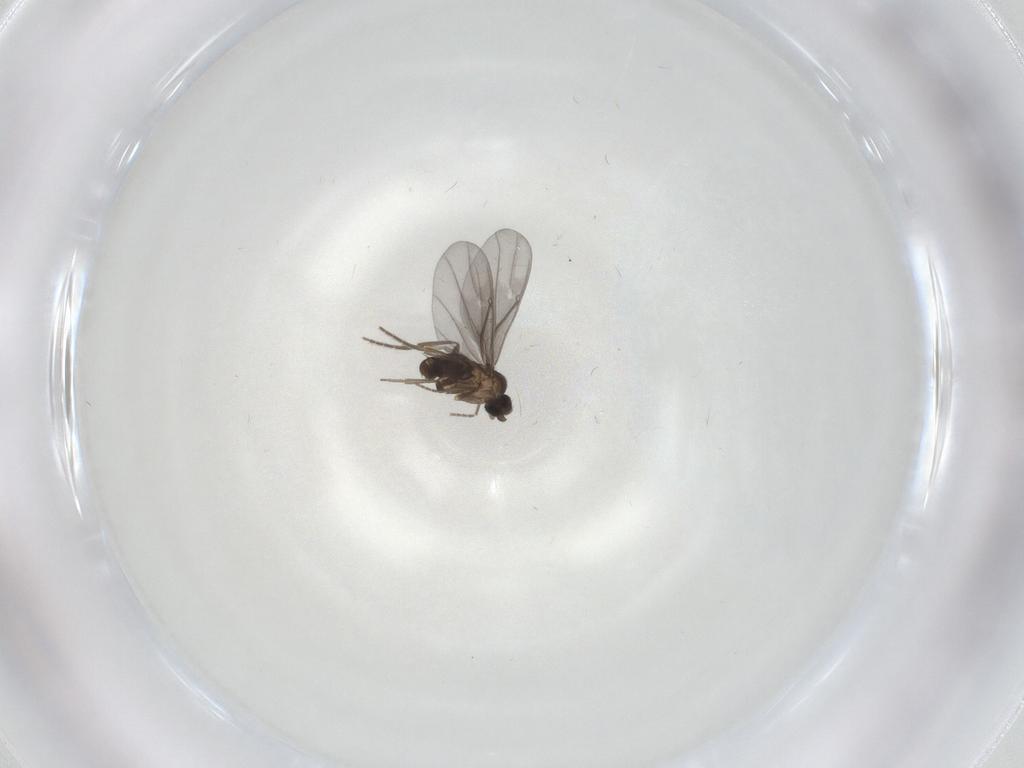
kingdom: Animalia
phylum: Arthropoda
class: Insecta
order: Diptera
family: Phoridae
